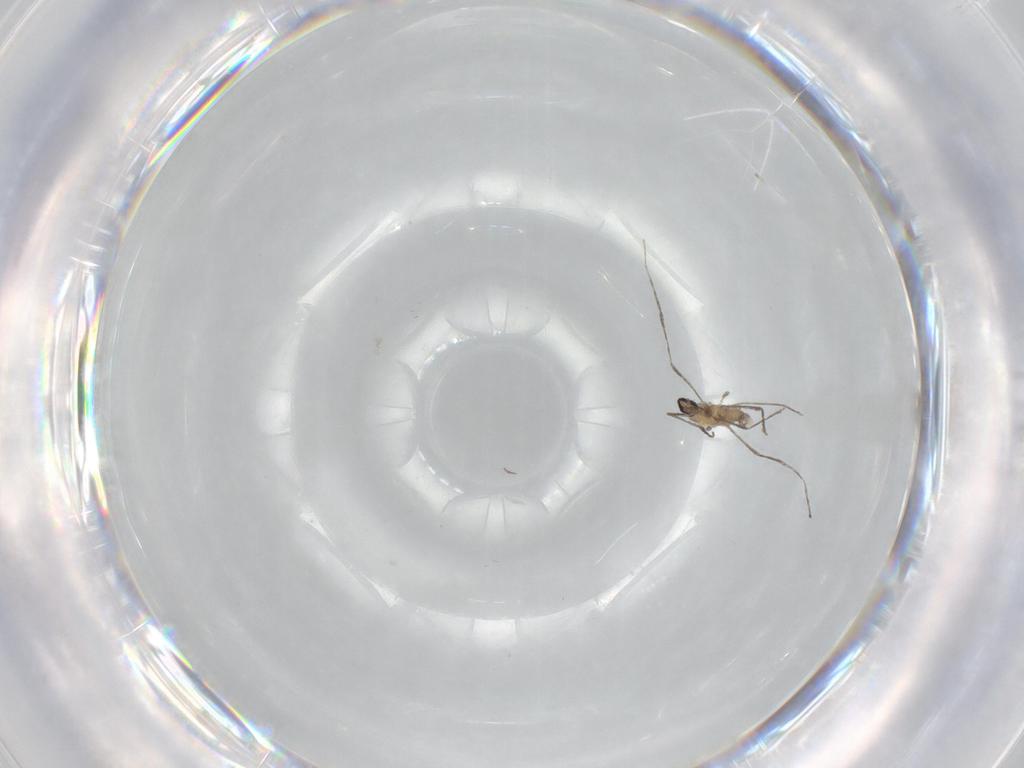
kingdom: Animalia
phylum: Arthropoda
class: Insecta
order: Diptera
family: Cecidomyiidae
